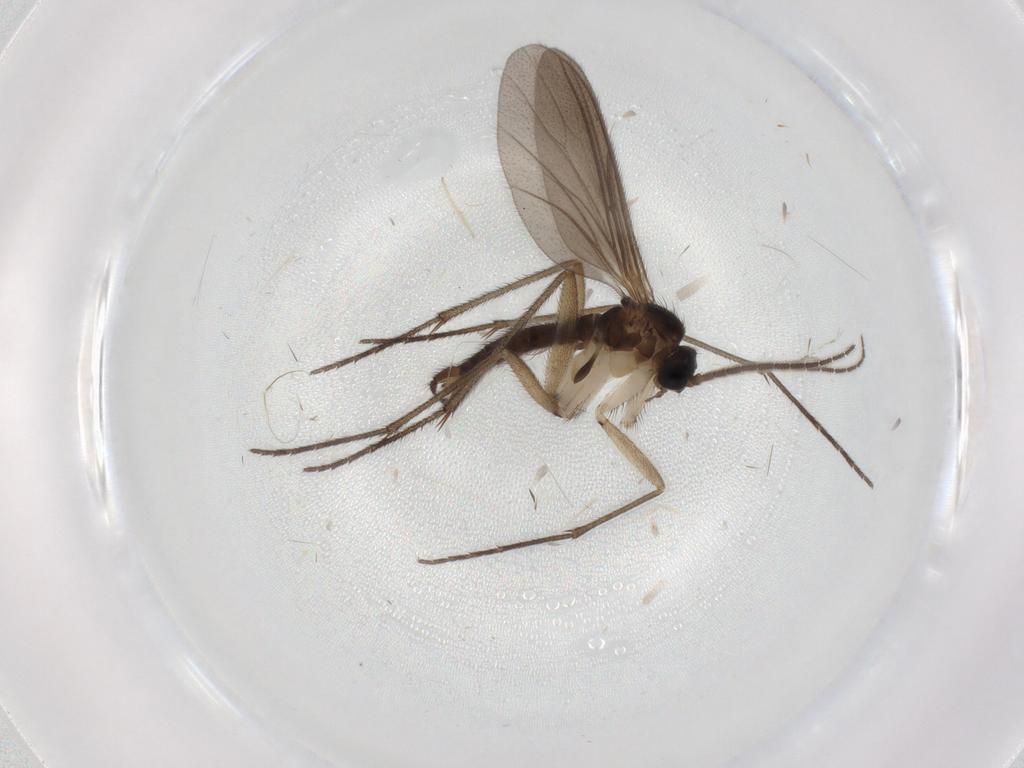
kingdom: Animalia
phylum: Arthropoda
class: Insecta
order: Diptera
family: Sciaridae
